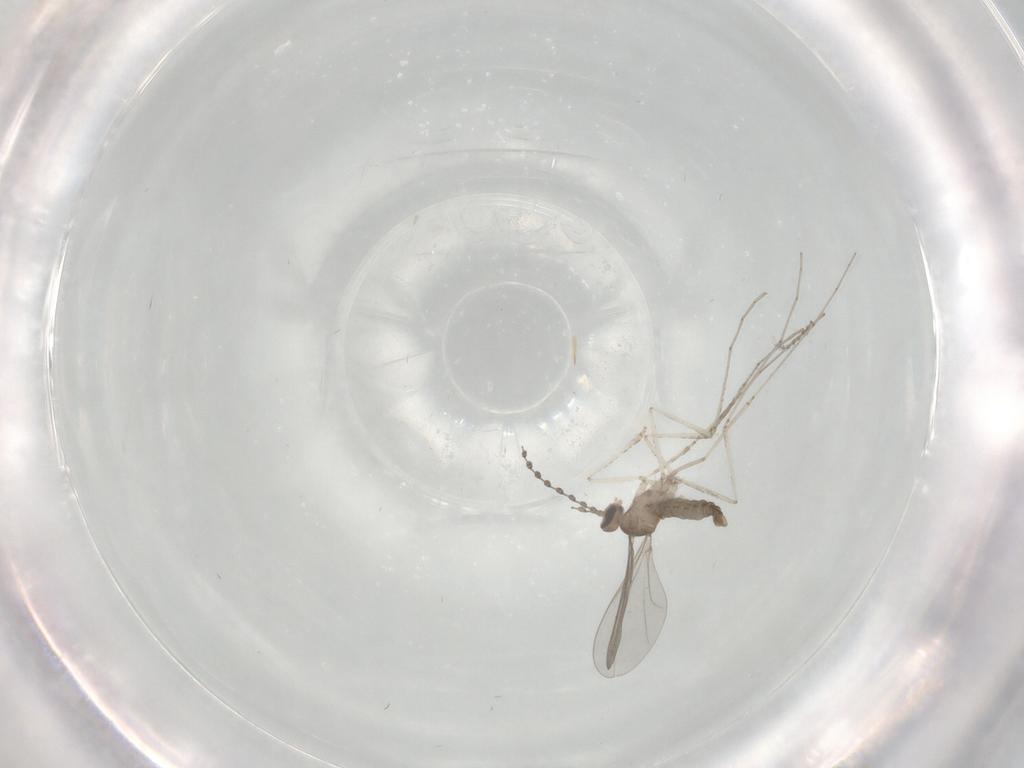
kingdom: Animalia
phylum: Arthropoda
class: Insecta
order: Diptera
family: Cecidomyiidae
